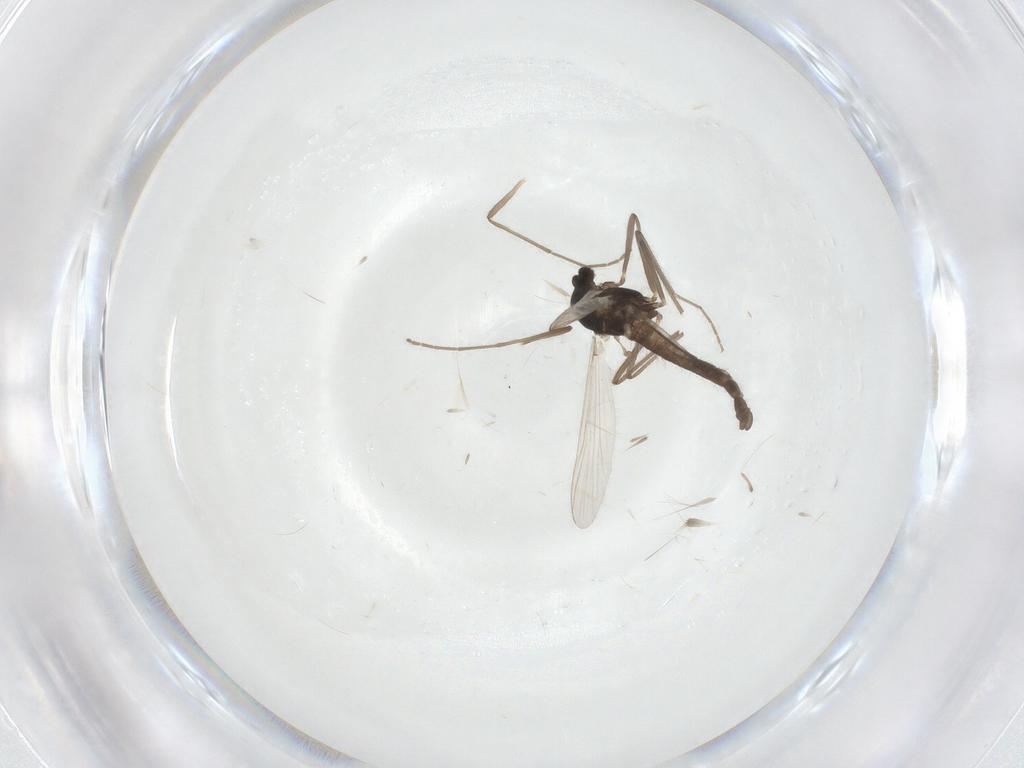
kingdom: Animalia
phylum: Arthropoda
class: Insecta
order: Diptera
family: Chironomidae
